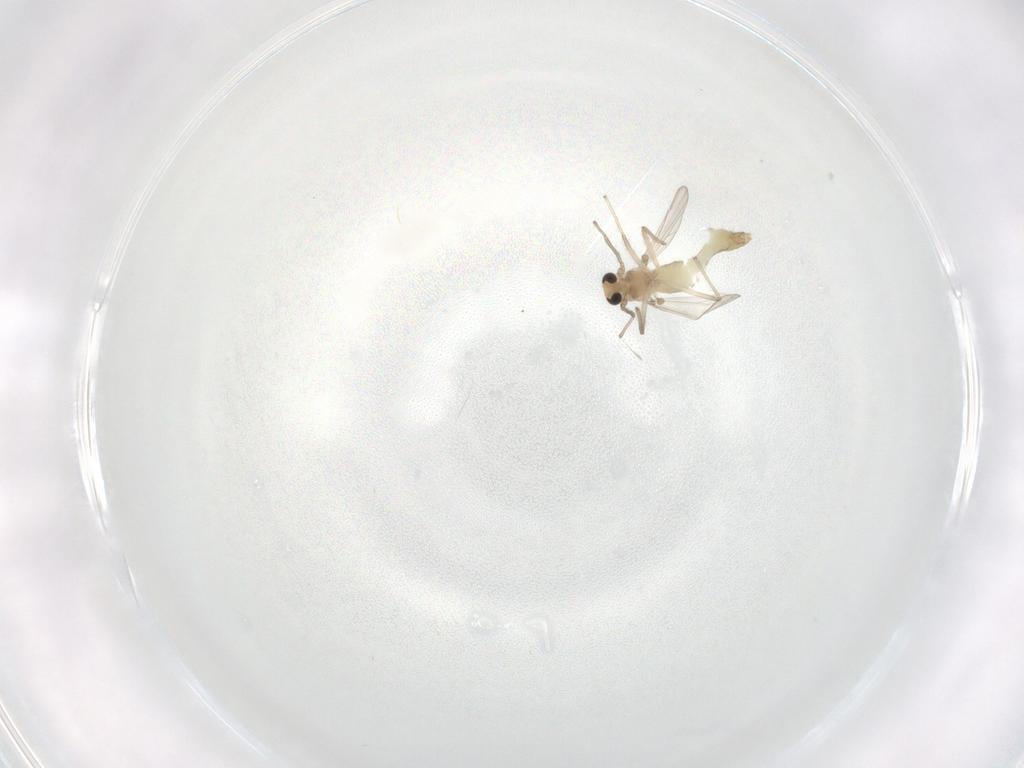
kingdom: Animalia
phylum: Arthropoda
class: Insecta
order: Diptera
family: Chironomidae
